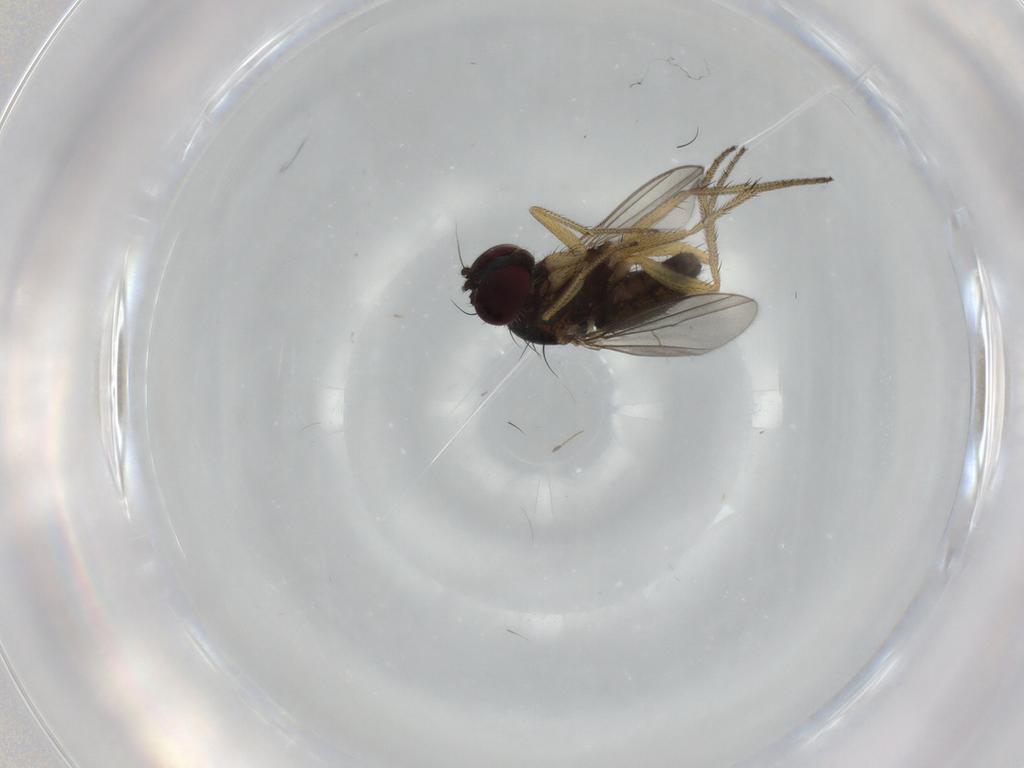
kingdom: Animalia
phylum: Arthropoda
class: Insecta
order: Diptera
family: Dolichopodidae
